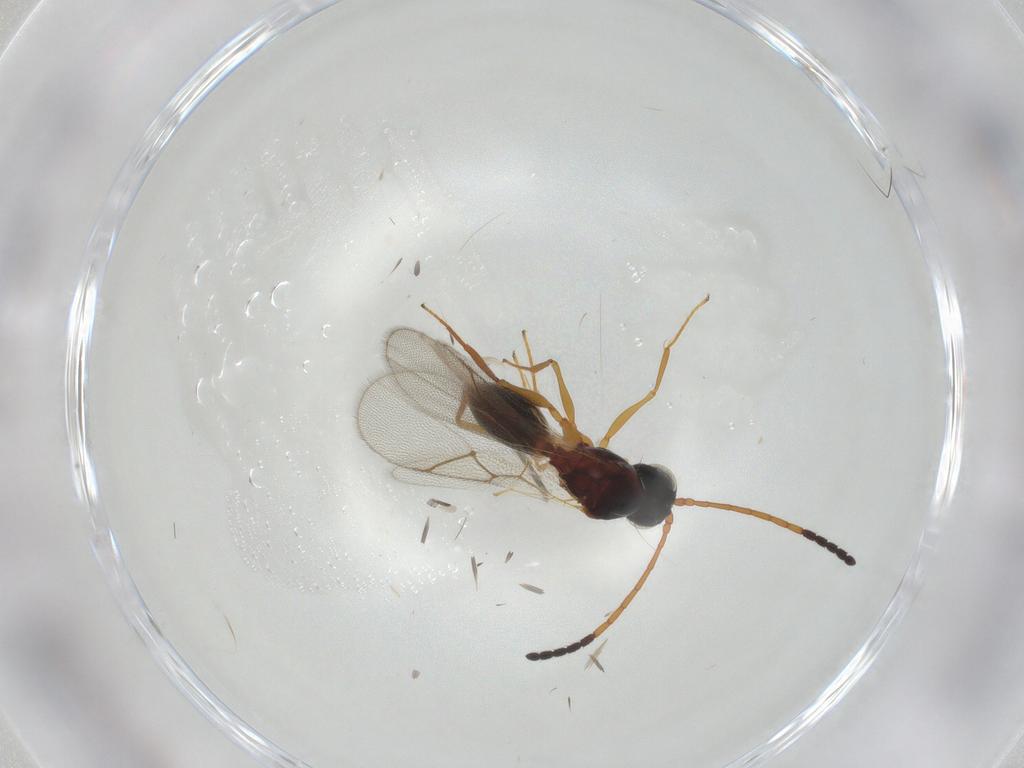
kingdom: Animalia
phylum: Arthropoda
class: Insecta
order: Hymenoptera
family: Figitidae
